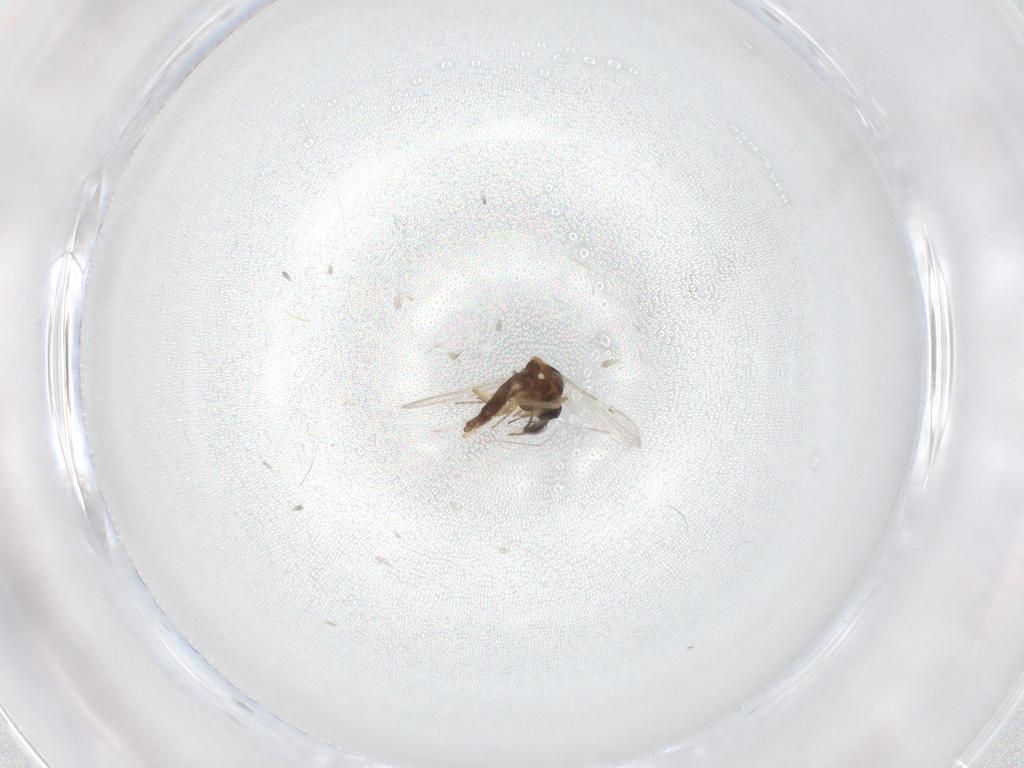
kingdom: Animalia
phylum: Arthropoda
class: Insecta
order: Diptera
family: Ceratopogonidae
